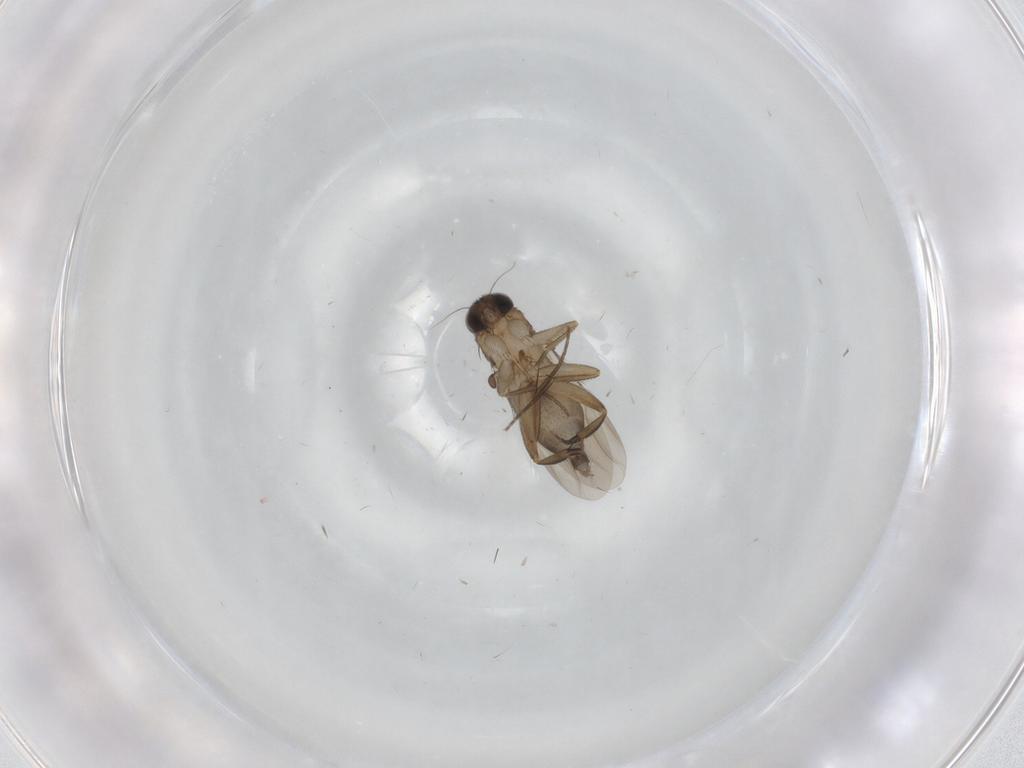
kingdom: Animalia
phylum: Arthropoda
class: Insecta
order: Diptera
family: Phoridae
